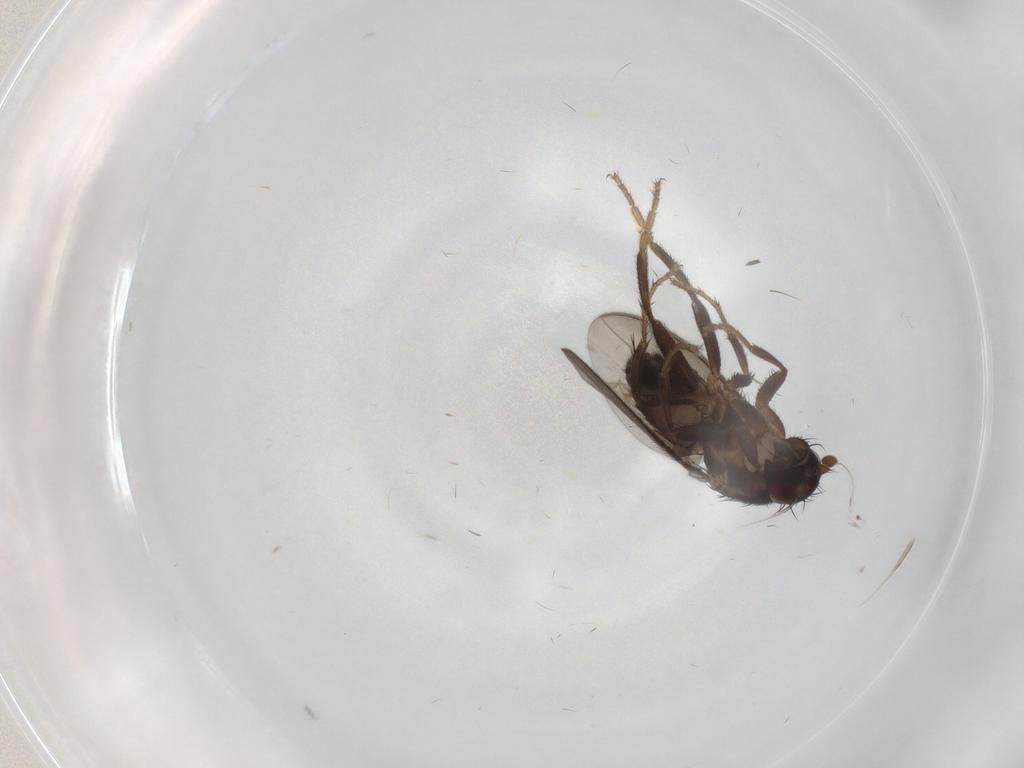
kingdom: Animalia
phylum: Arthropoda
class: Insecta
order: Diptera
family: Sphaeroceridae
